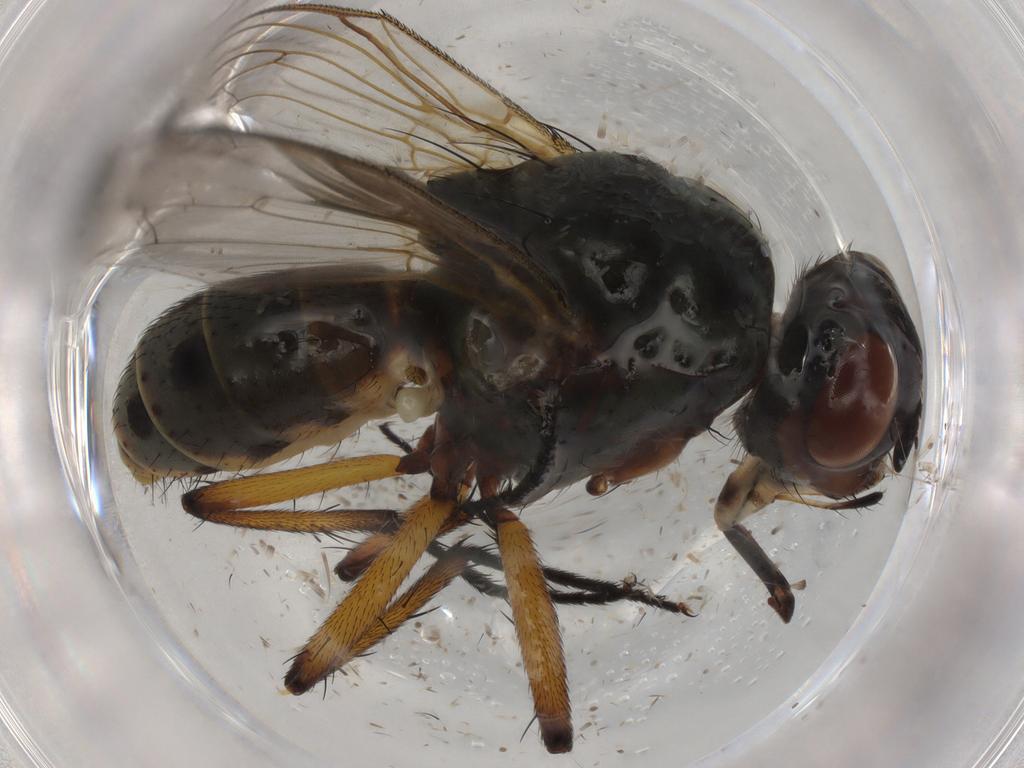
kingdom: Animalia
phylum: Arthropoda
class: Insecta
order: Diptera
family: Anthomyiidae
